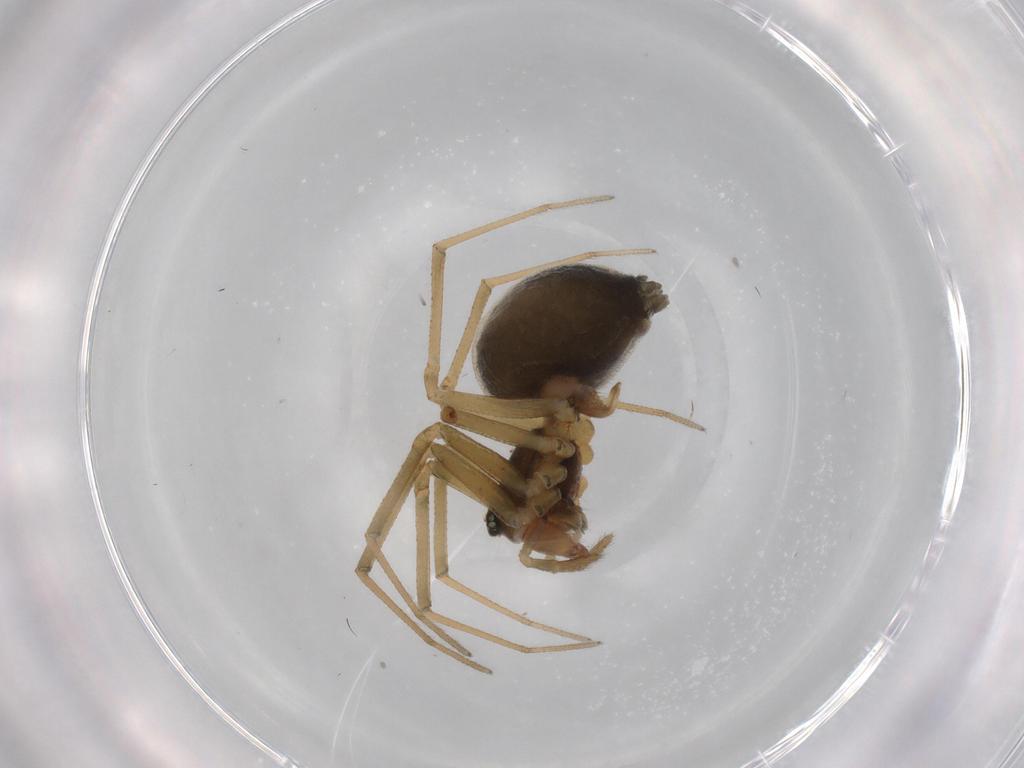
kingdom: Animalia
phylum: Arthropoda
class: Arachnida
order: Araneae
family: Linyphiidae
